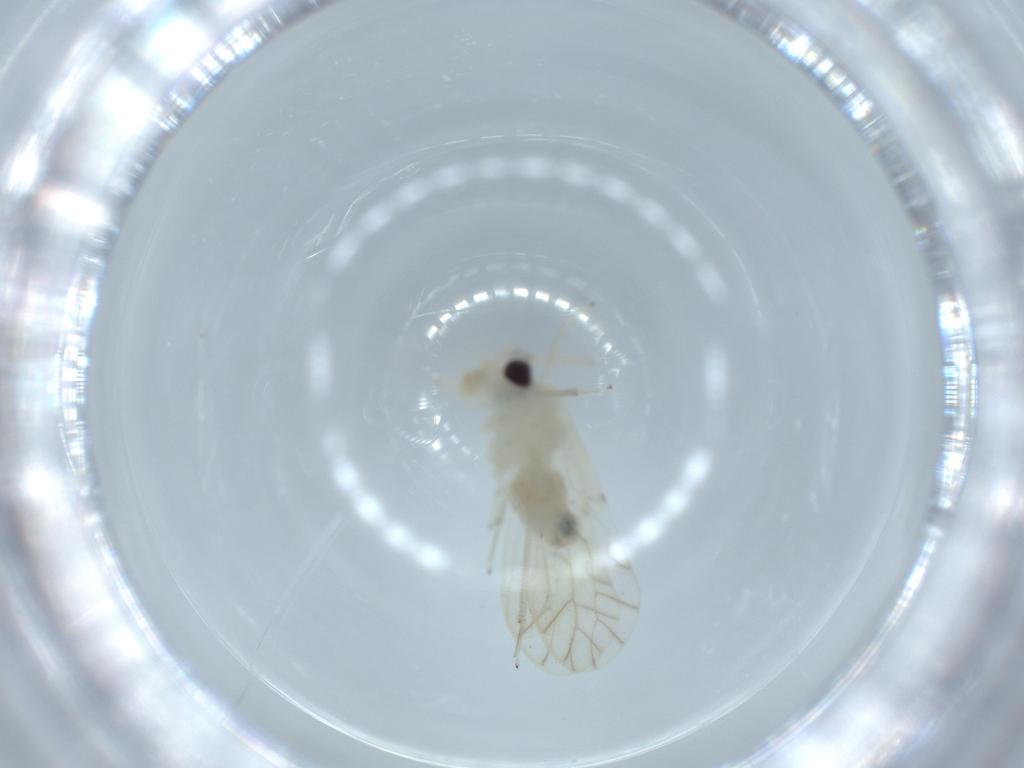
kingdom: Animalia
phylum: Arthropoda
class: Insecta
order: Psocodea
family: Caeciliusidae
